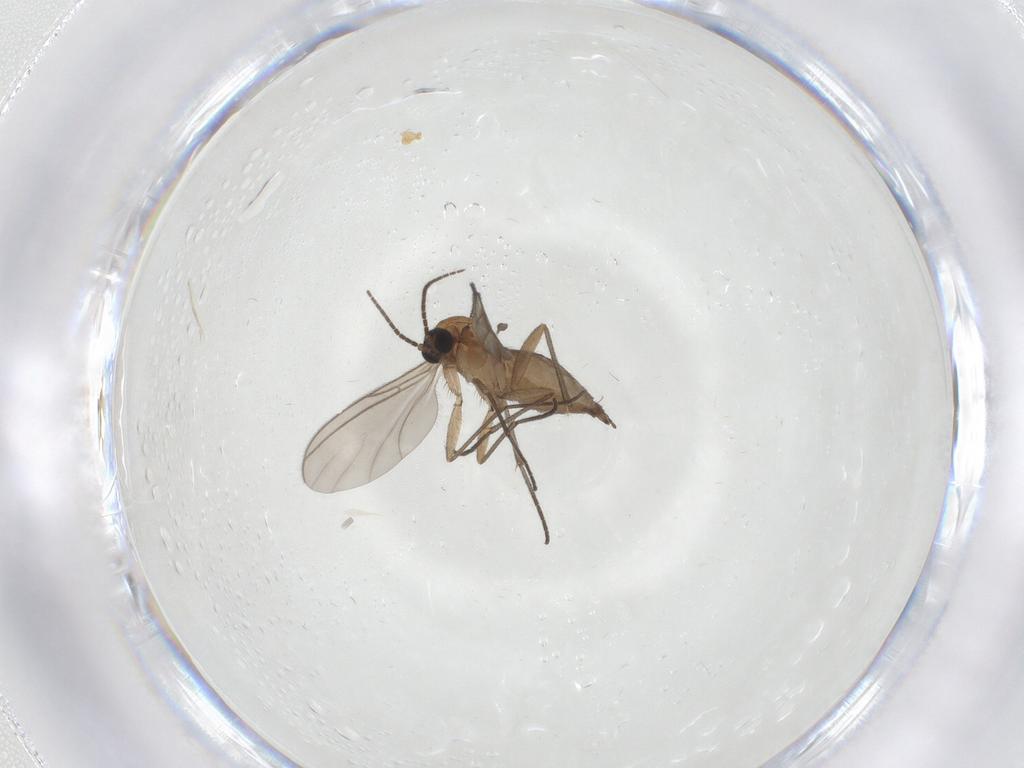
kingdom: Animalia
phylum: Arthropoda
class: Insecta
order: Diptera
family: Sciaridae
